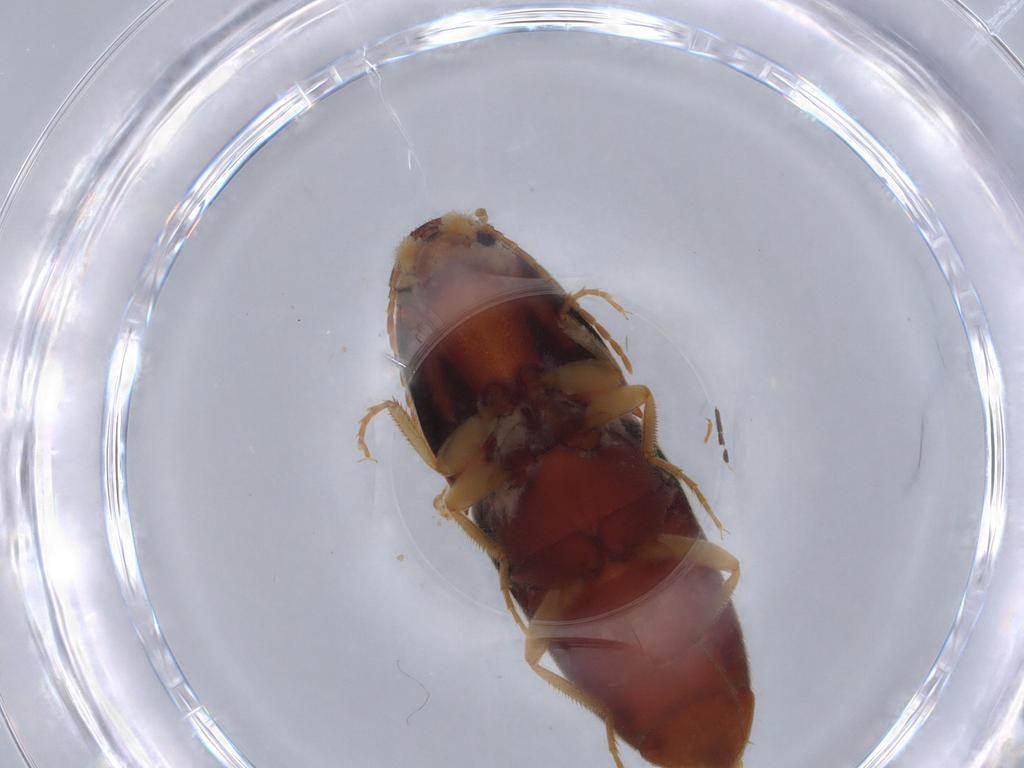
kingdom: Animalia
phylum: Arthropoda
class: Insecta
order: Coleoptera
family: Elateridae
